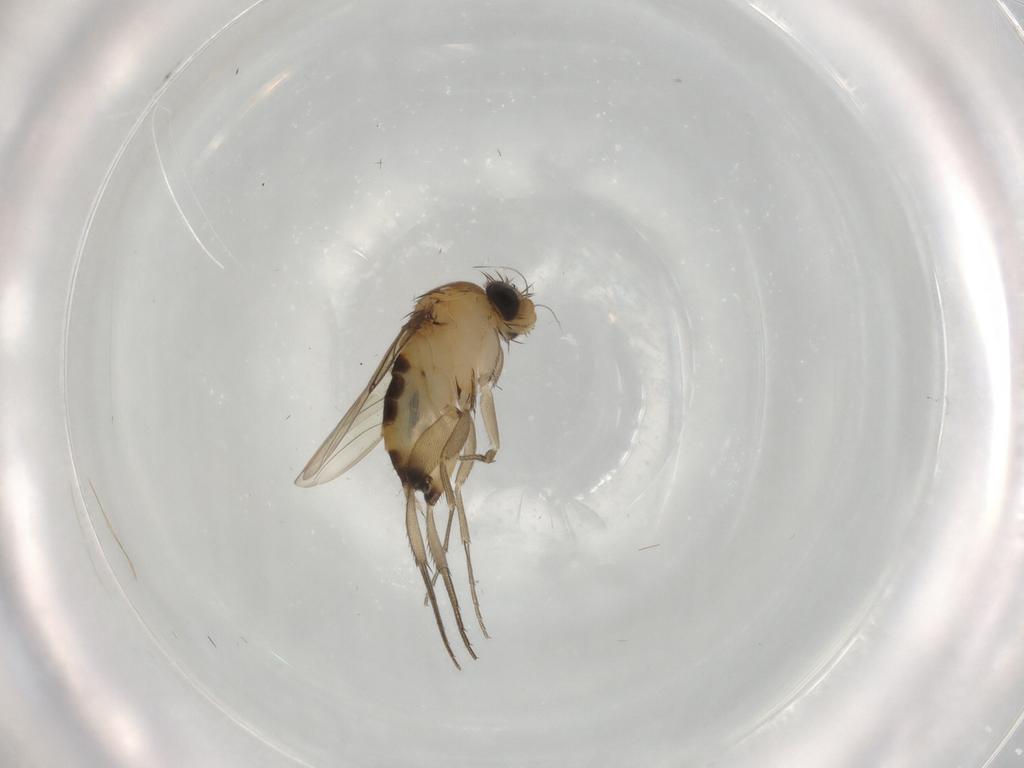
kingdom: Animalia
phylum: Arthropoda
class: Insecta
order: Diptera
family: Phoridae
